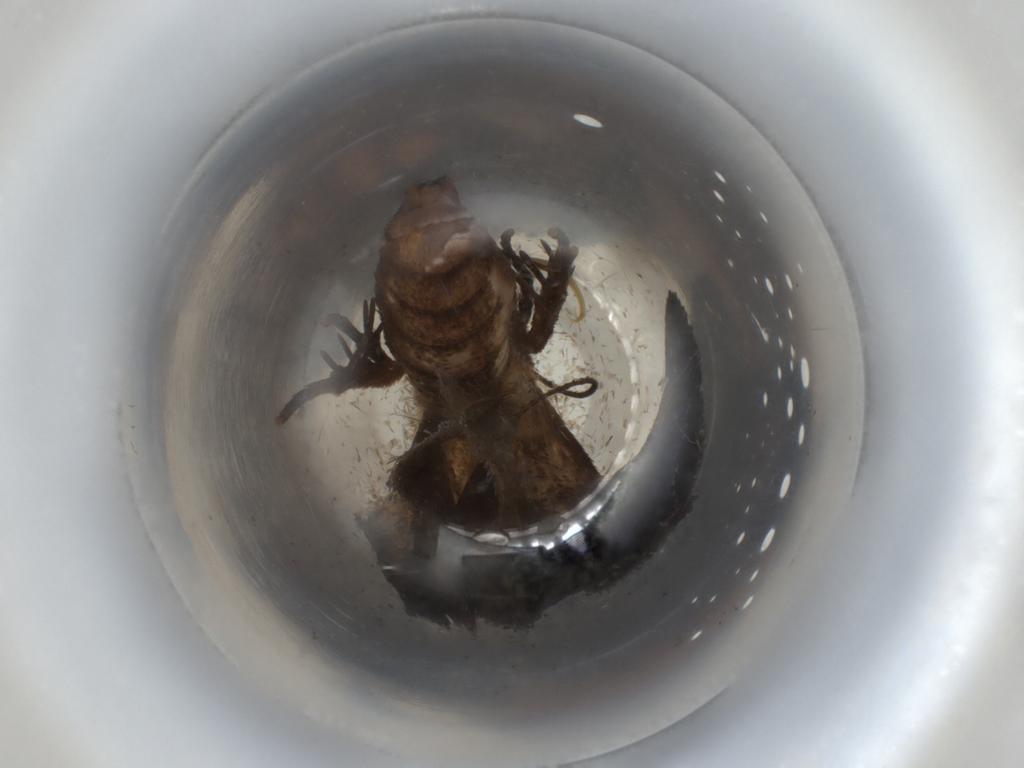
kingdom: Animalia
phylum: Arthropoda
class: Insecta
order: Lepidoptera
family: Erebidae
